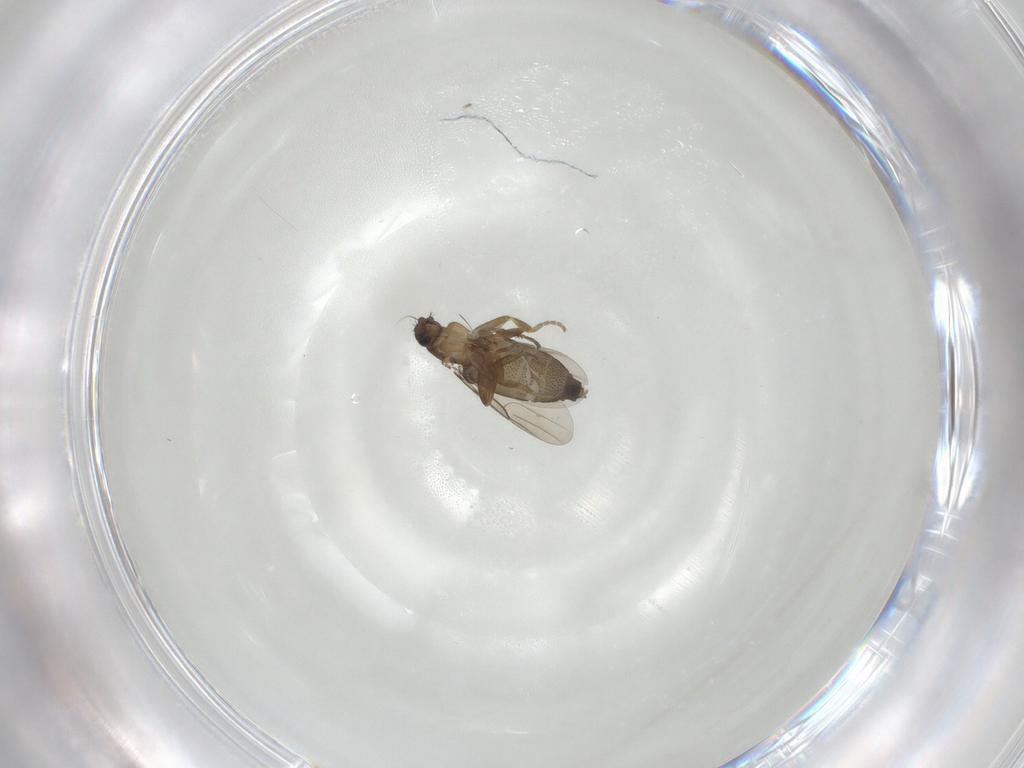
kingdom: Animalia
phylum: Arthropoda
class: Insecta
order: Diptera
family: Phoridae
